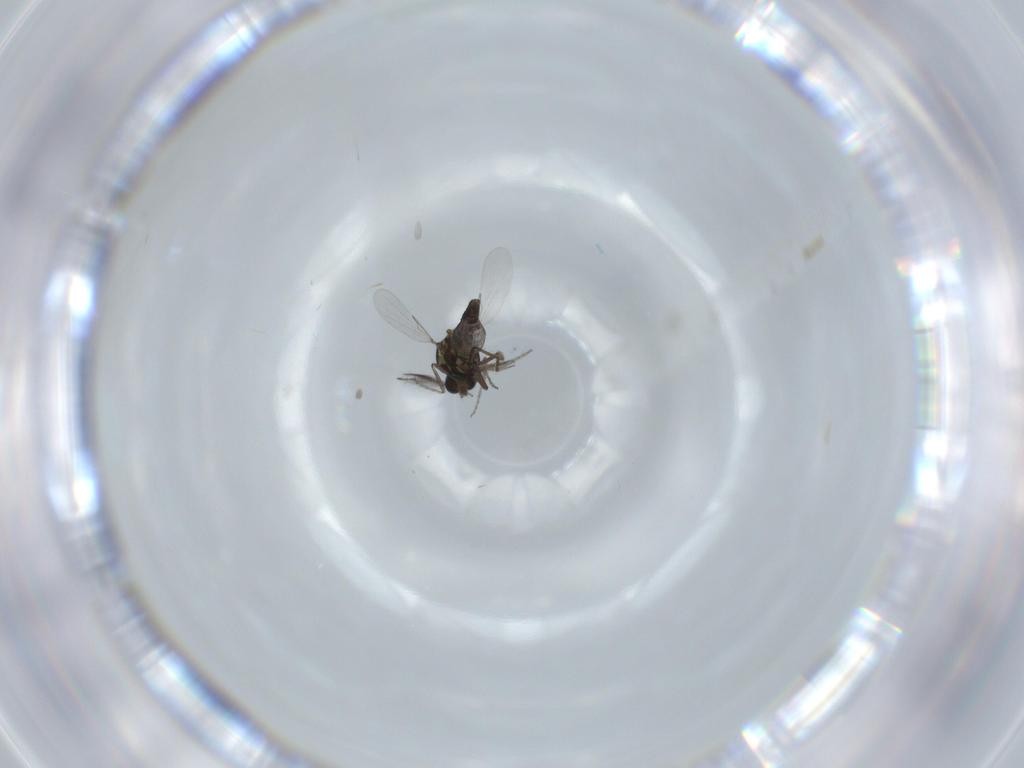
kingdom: Animalia
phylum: Arthropoda
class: Insecta
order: Diptera
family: Ceratopogonidae
